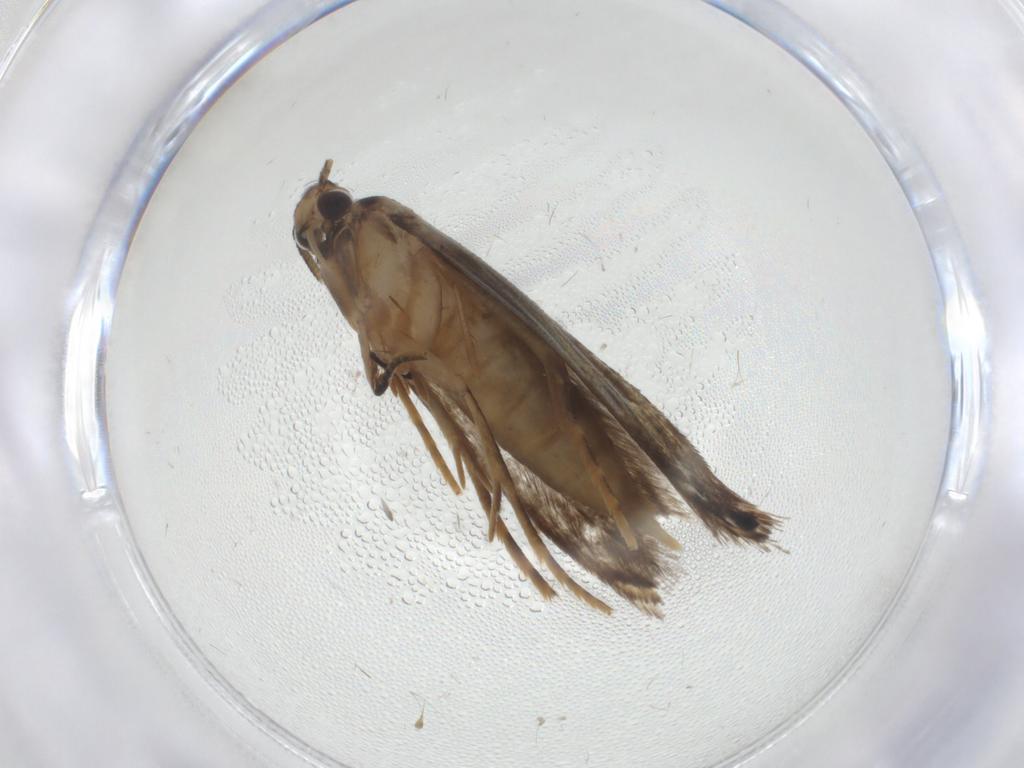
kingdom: Animalia
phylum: Arthropoda
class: Insecta
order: Lepidoptera
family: Tineidae
